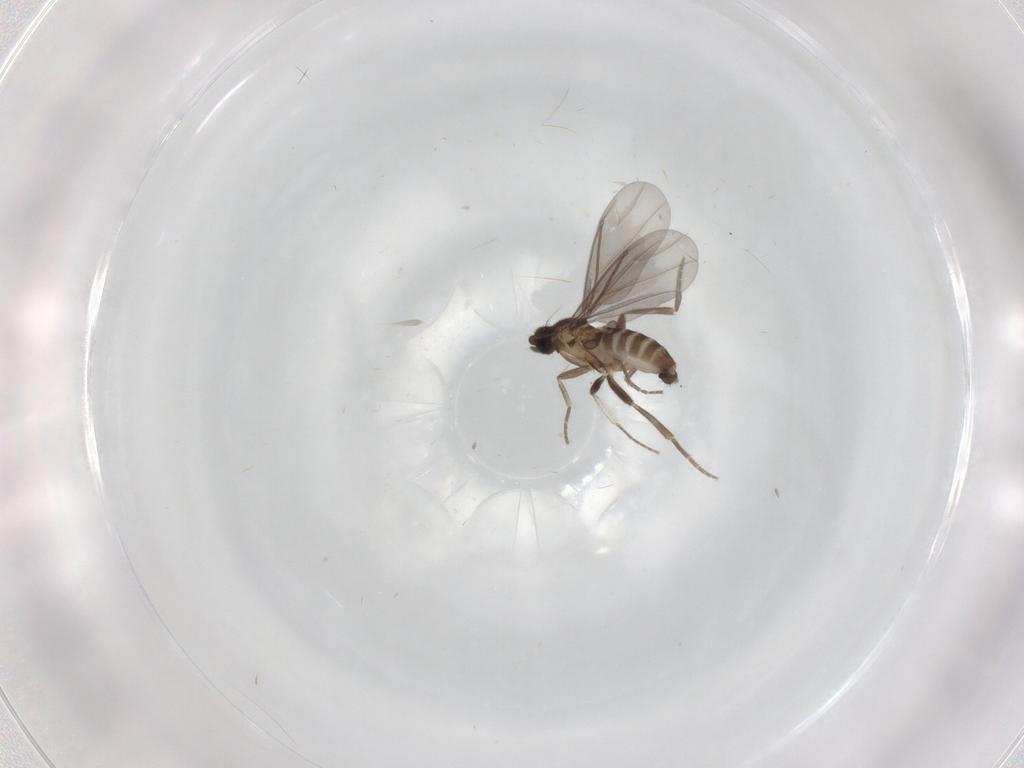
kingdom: Animalia
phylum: Arthropoda
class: Insecta
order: Diptera
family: Phoridae
